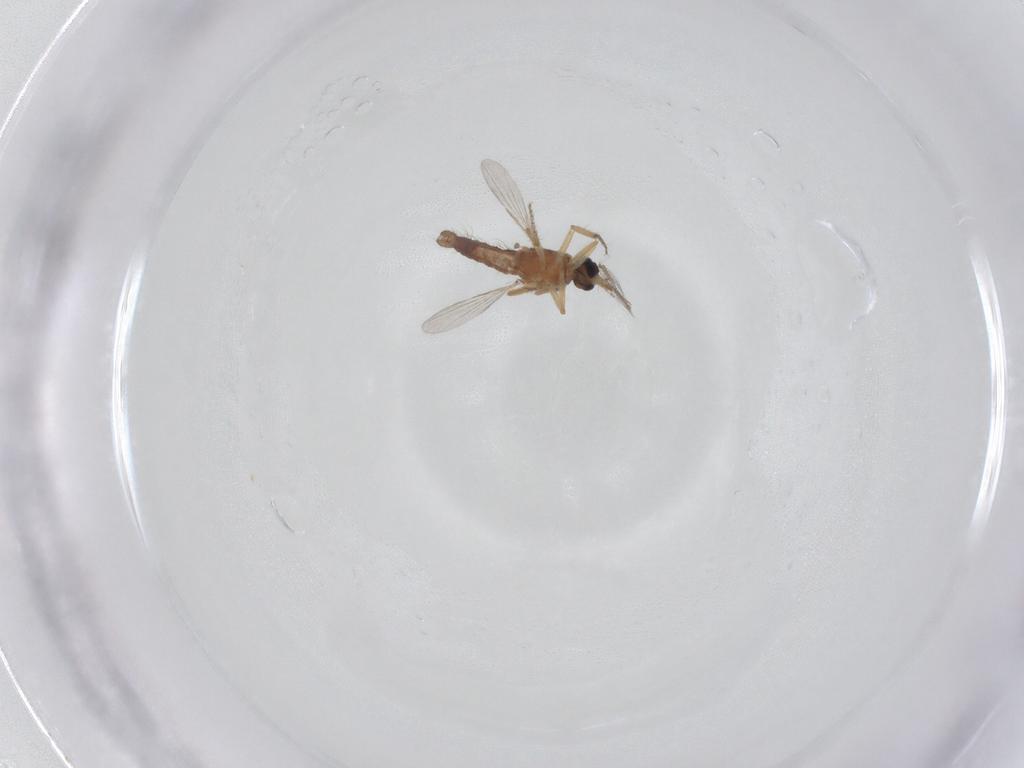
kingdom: Animalia
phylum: Arthropoda
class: Insecta
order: Diptera
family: Ceratopogonidae
